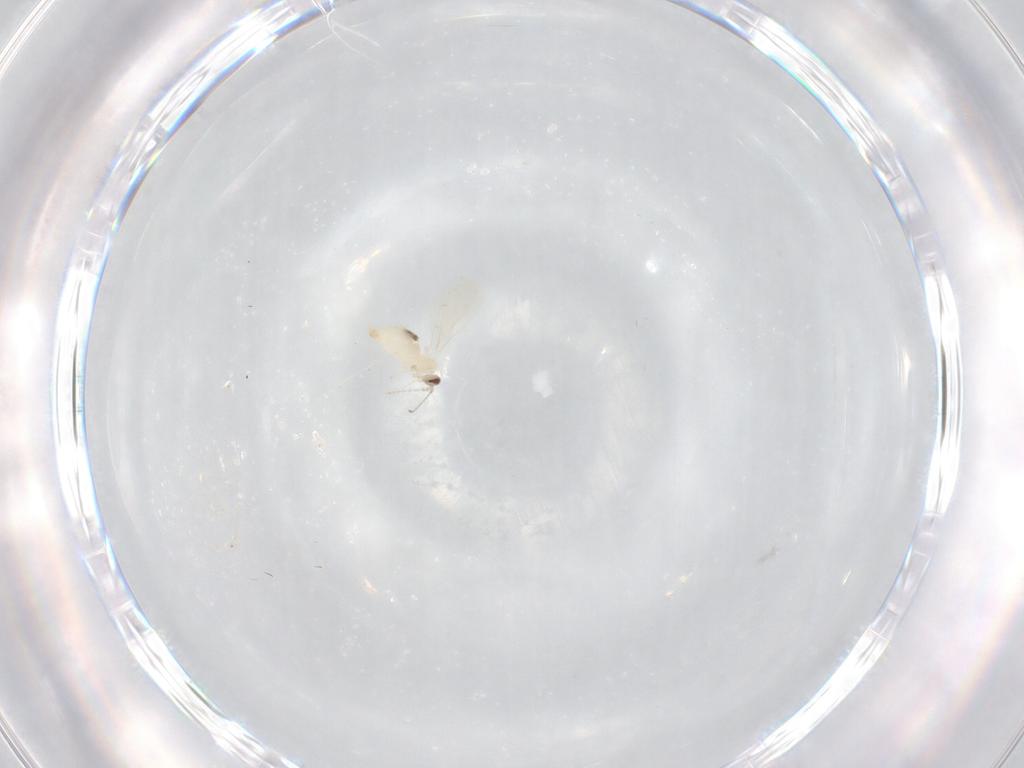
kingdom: Animalia
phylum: Arthropoda
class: Insecta
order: Diptera
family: Cecidomyiidae
